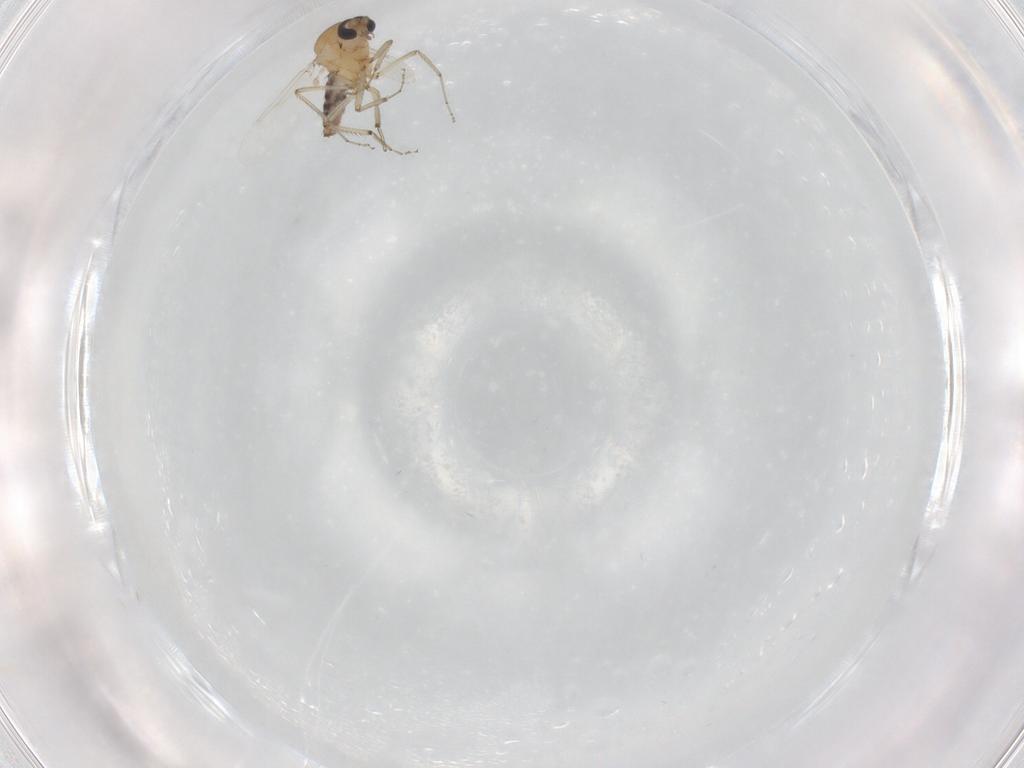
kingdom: Animalia
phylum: Arthropoda
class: Insecta
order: Diptera
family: Ceratopogonidae
